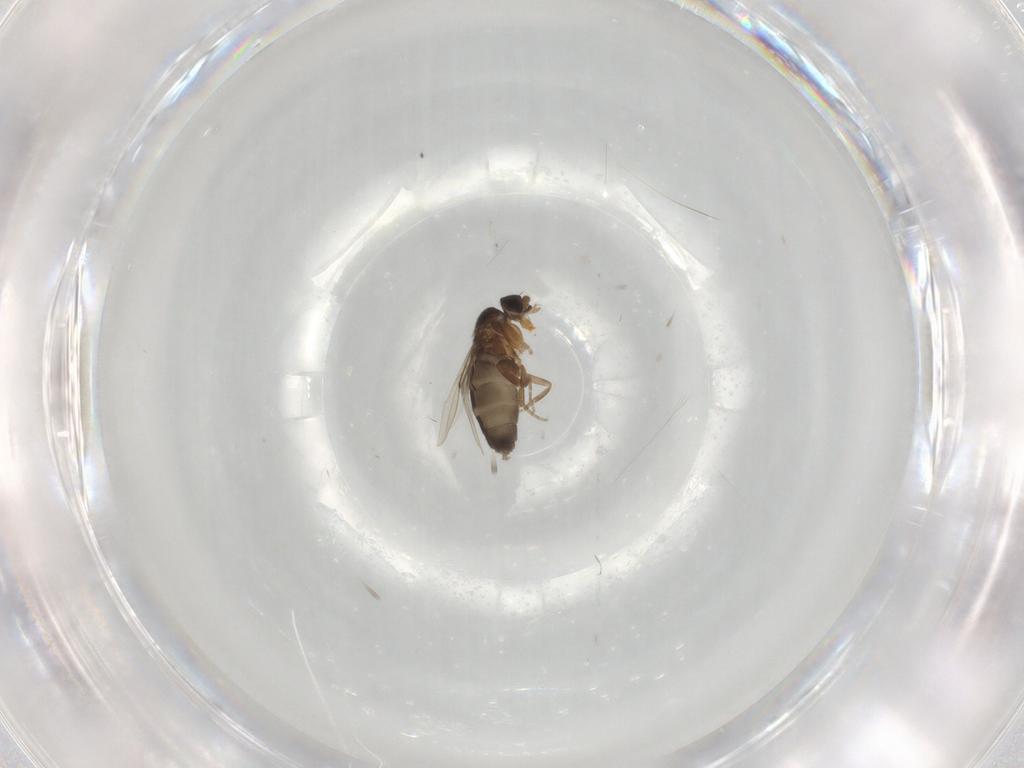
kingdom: Animalia
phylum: Arthropoda
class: Insecta
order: Diptera
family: Phoridae
